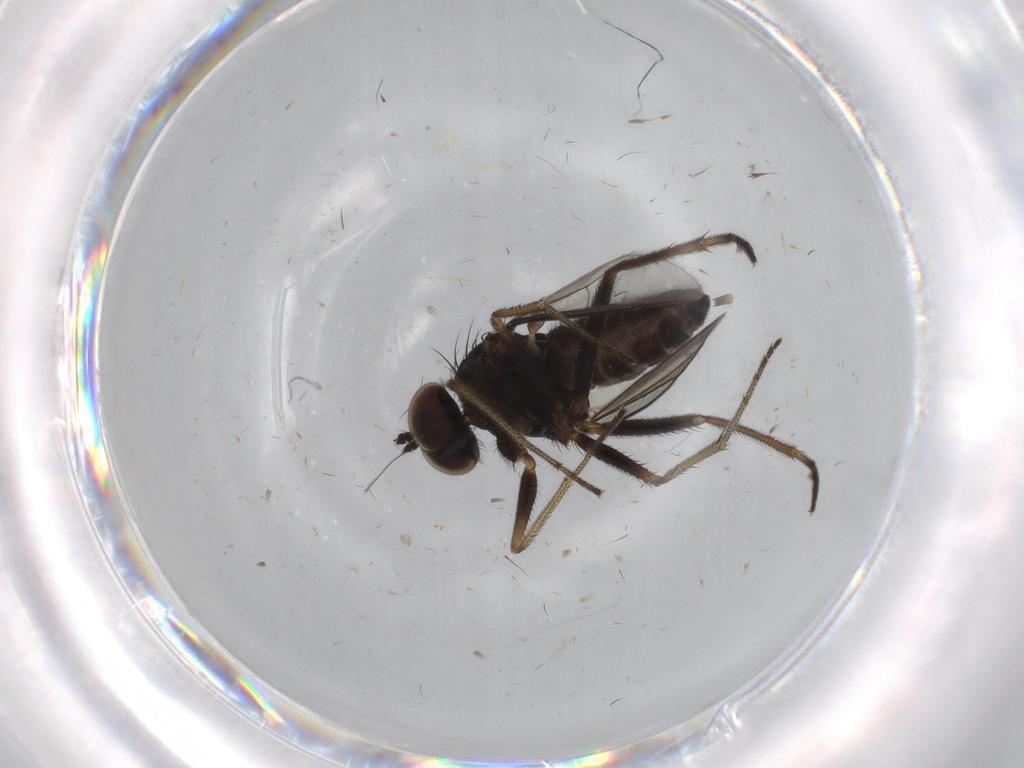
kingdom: Animalia
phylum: Arthropoda
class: Insecta
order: Diptera
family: Dolichopodidae
